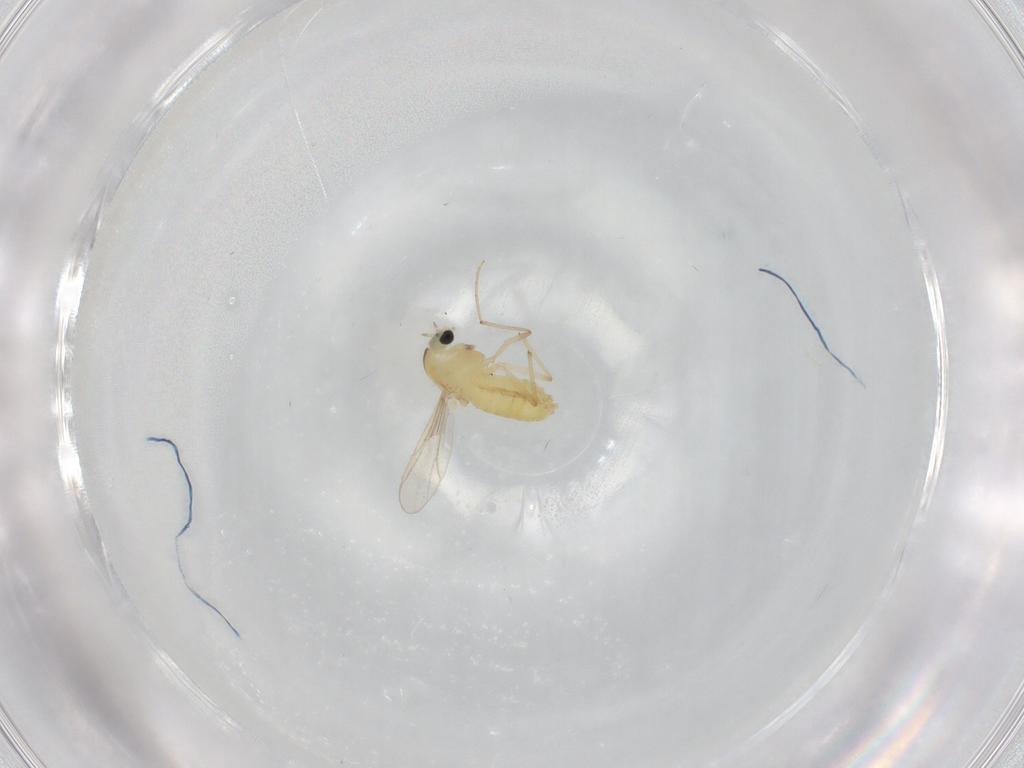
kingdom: Animalia
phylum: Arthropoda
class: Insecta
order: Diptera
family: Chironomidae
